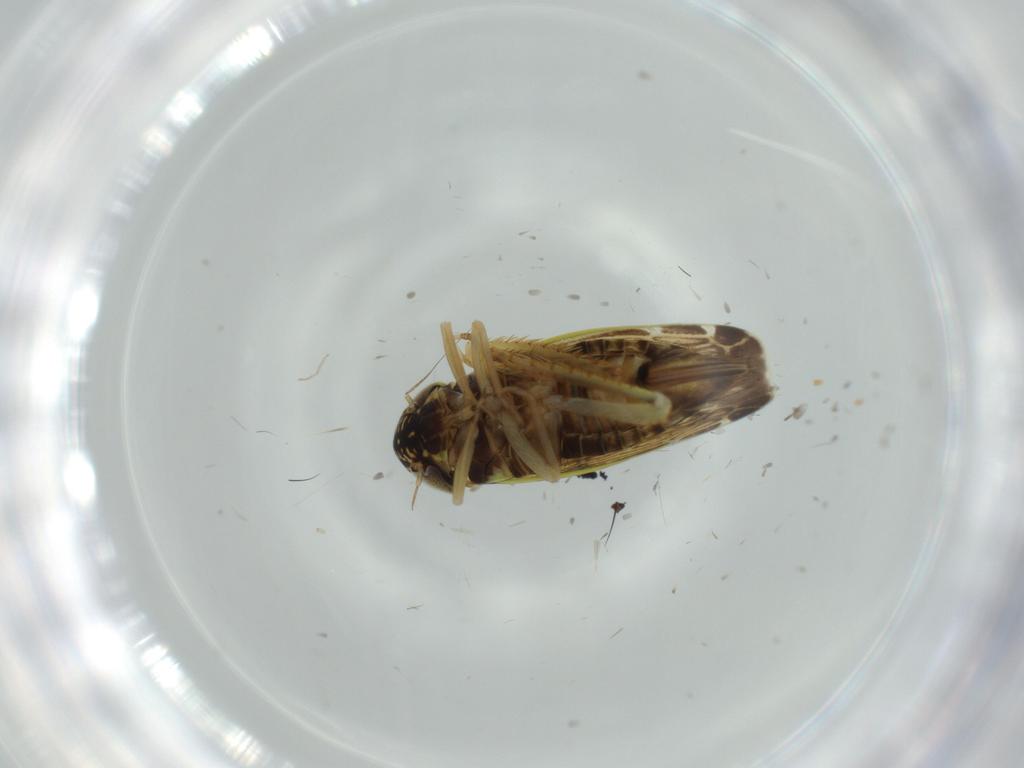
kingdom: Animalia
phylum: Arthropoda
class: Insecta
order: Hemiptera
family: Cicadellidae
